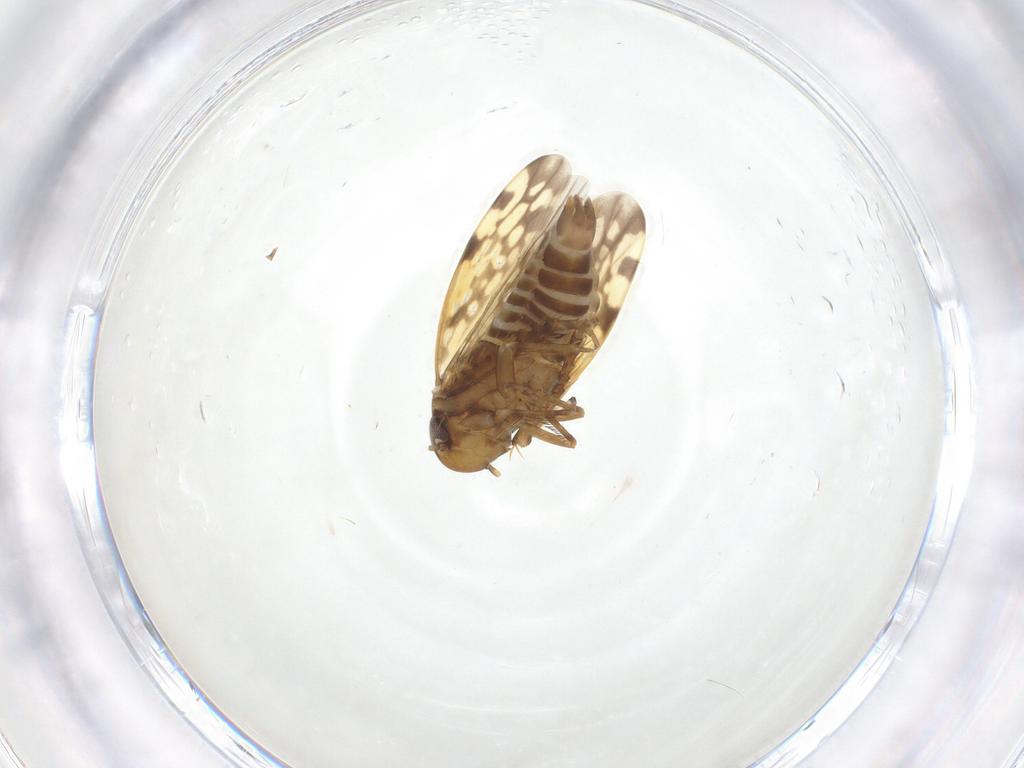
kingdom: Animalia
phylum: Arthropoda
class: Insecta
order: Hemiptera
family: Cicadellidae
